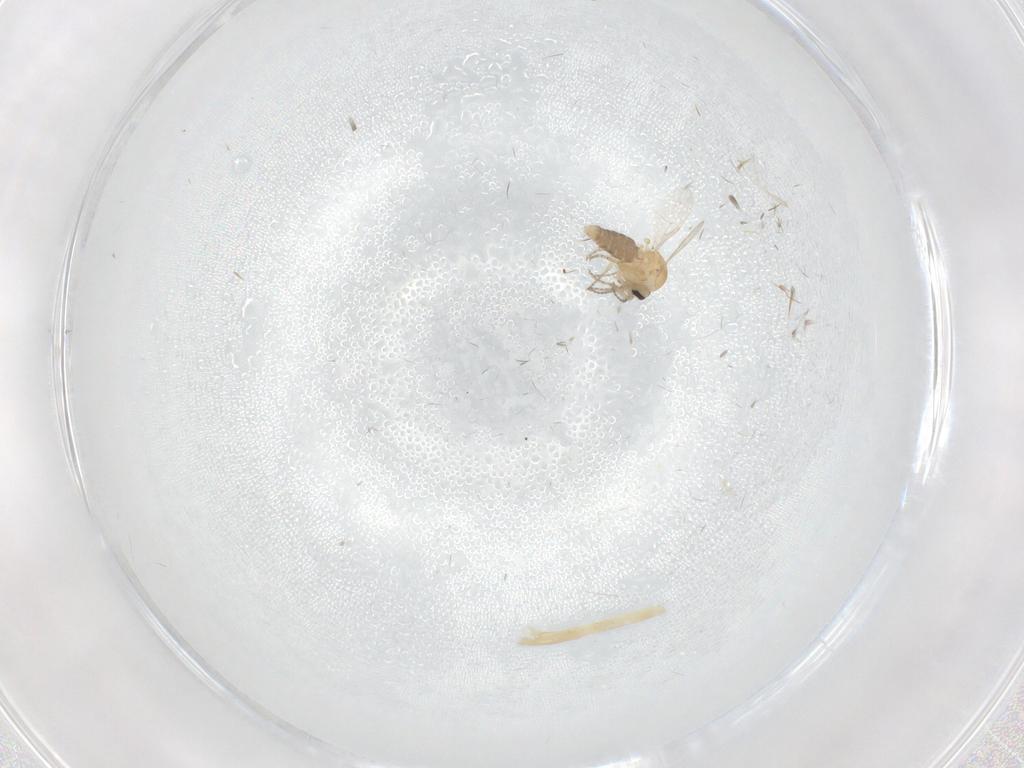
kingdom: Animalia
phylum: Arthropoda
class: Insecta
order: Diptera
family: Ceratopogonidae
